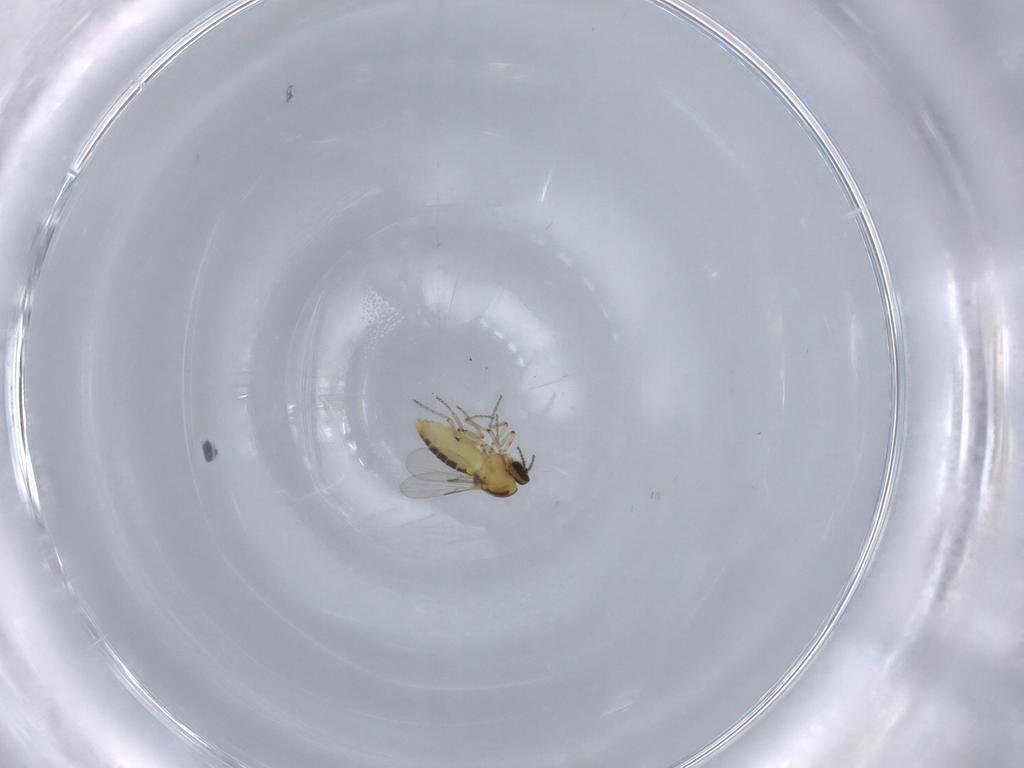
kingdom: Animalia
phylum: Arthropoda
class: Insecta
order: Diptera
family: Ceratopogonidae
